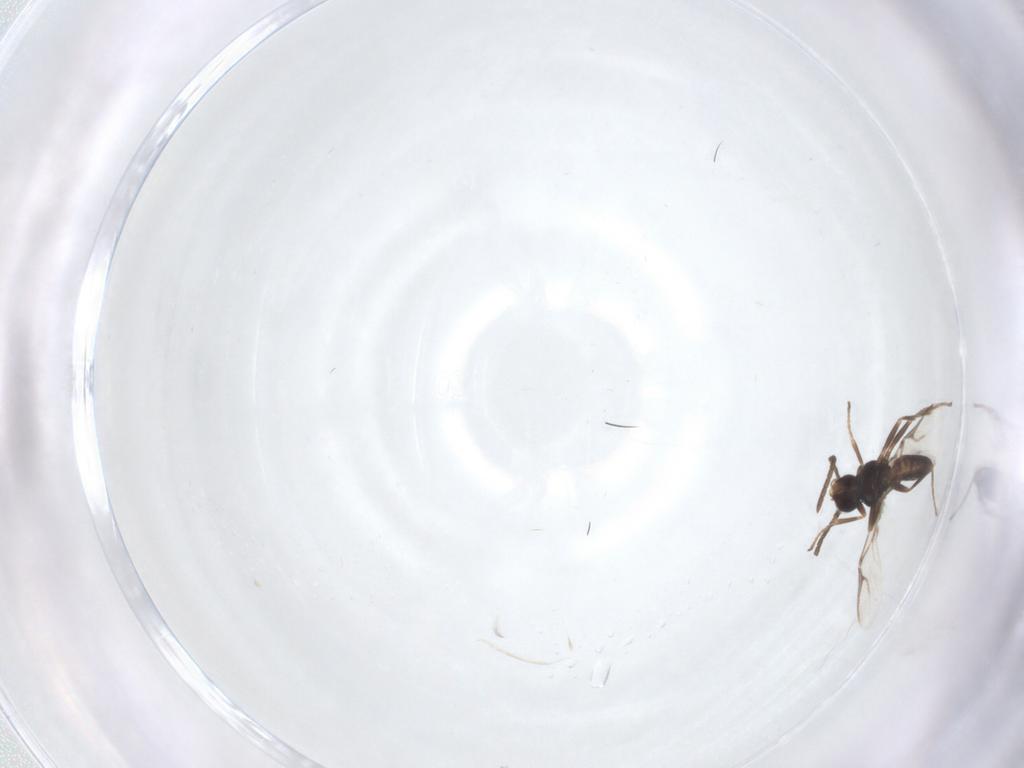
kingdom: Animalia
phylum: Arthropoda
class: Insecta
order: Hymenoptera
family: Braconidae
